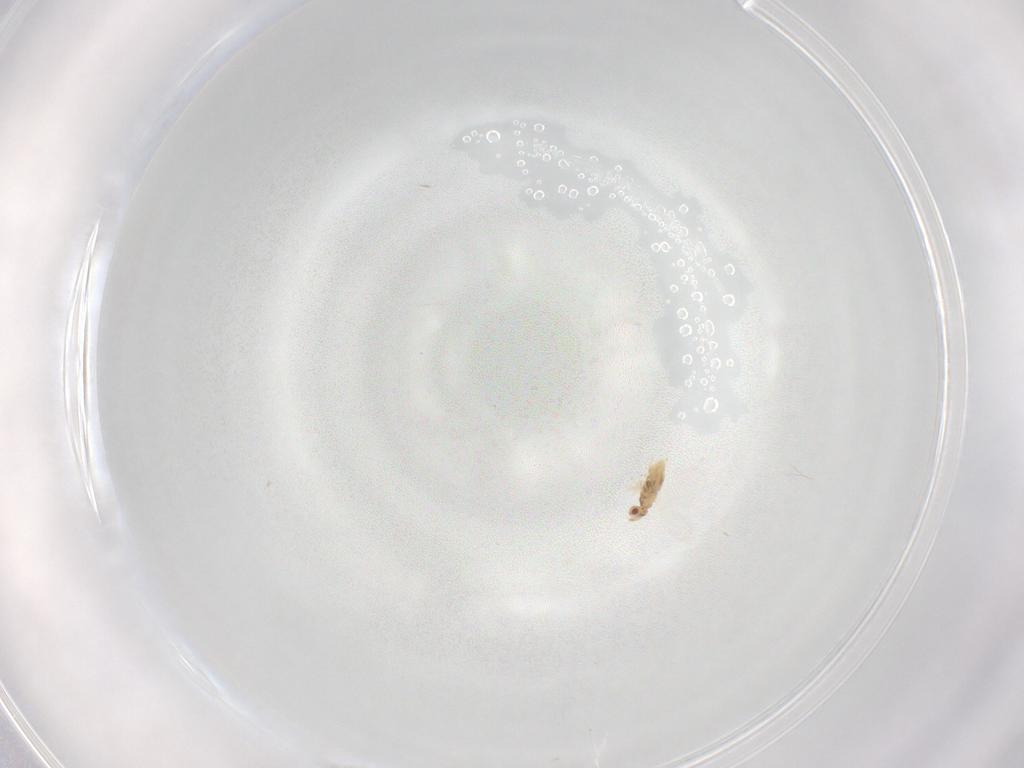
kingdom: Animalia
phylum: Arthropoda
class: Insecta
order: Hymenoptera
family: Trichogrammatidae
